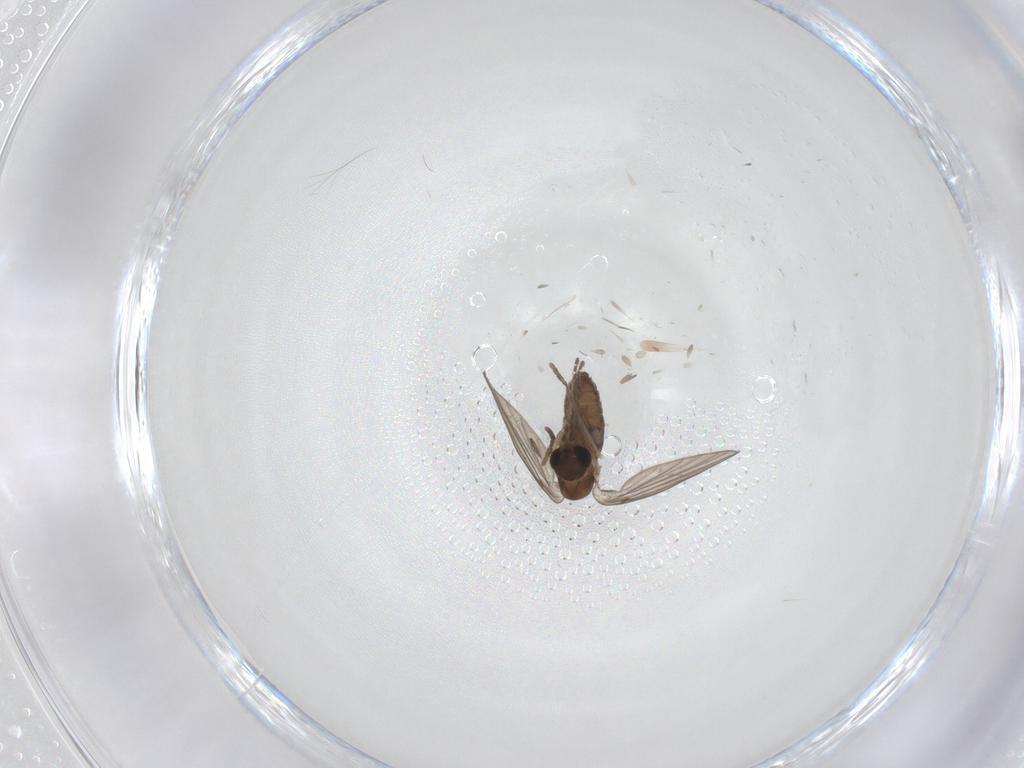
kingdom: Animalia
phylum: Arthropoda
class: Insecta
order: Diptera
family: Psychodidae
